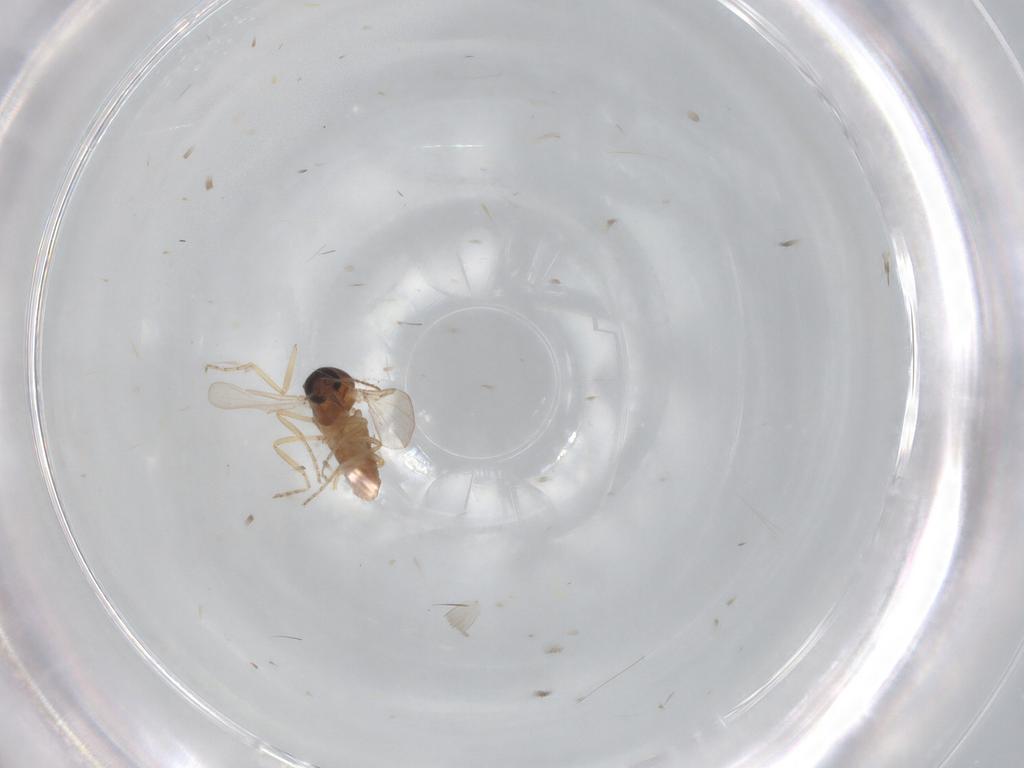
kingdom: Animalia
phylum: Arthropoda
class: Insecta
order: Diptera
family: Ceratopogonidae
